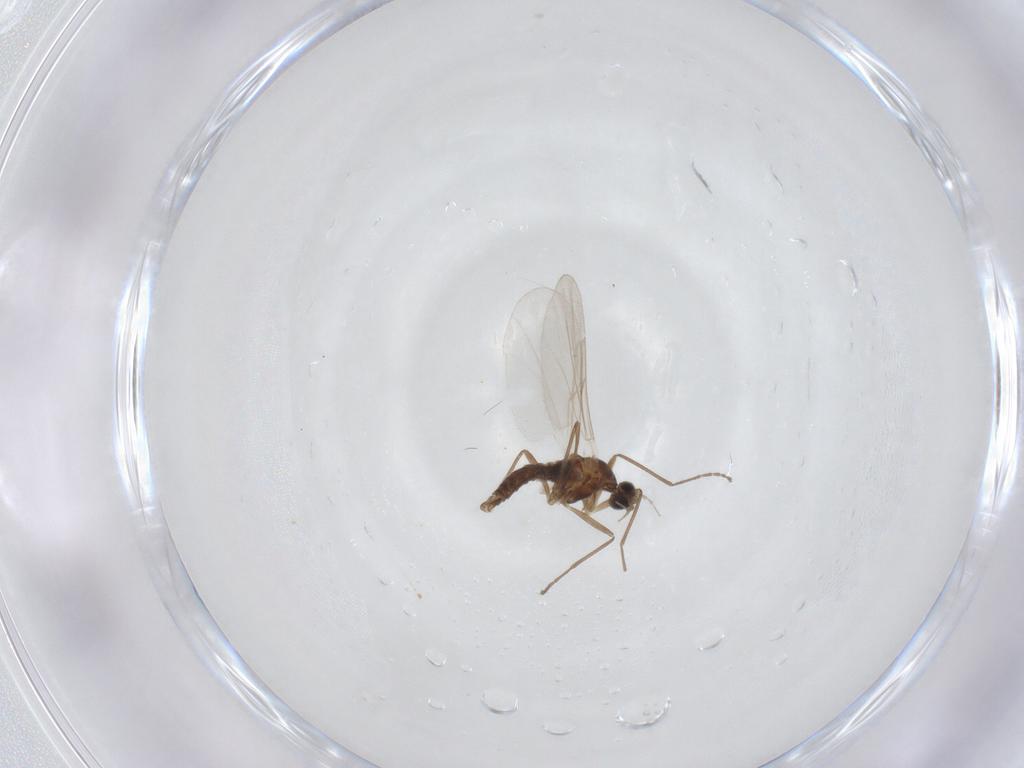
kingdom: Animalia
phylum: Arthropoda
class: Insecta
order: Diptera
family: Cecidomyiidae
